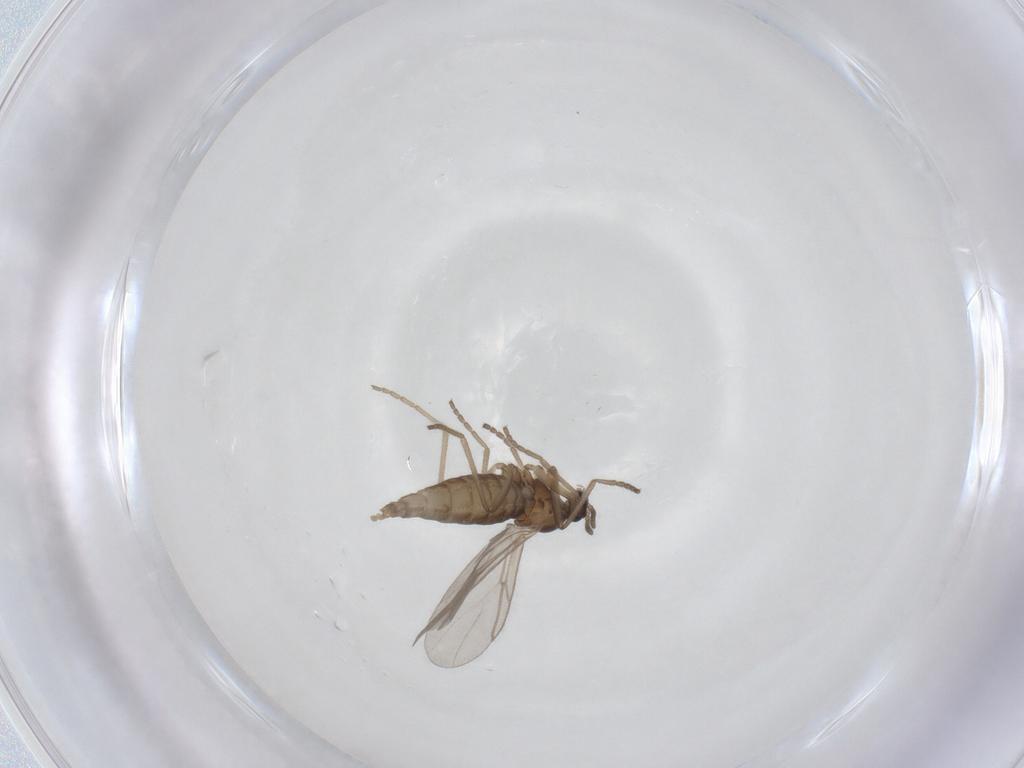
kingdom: Animalia
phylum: Arthropoda
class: Insecta
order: Diptera
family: Cecidomyiidae
